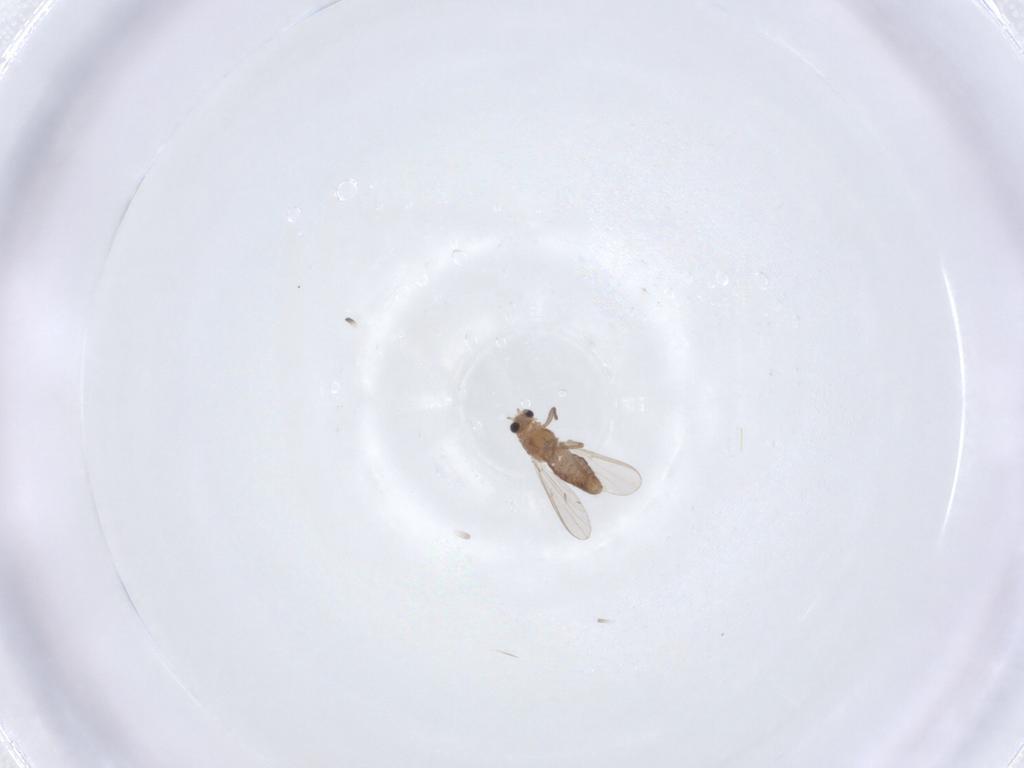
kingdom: Animalia
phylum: Arthropoda
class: Insecta
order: Diptera
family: Chironomidae
